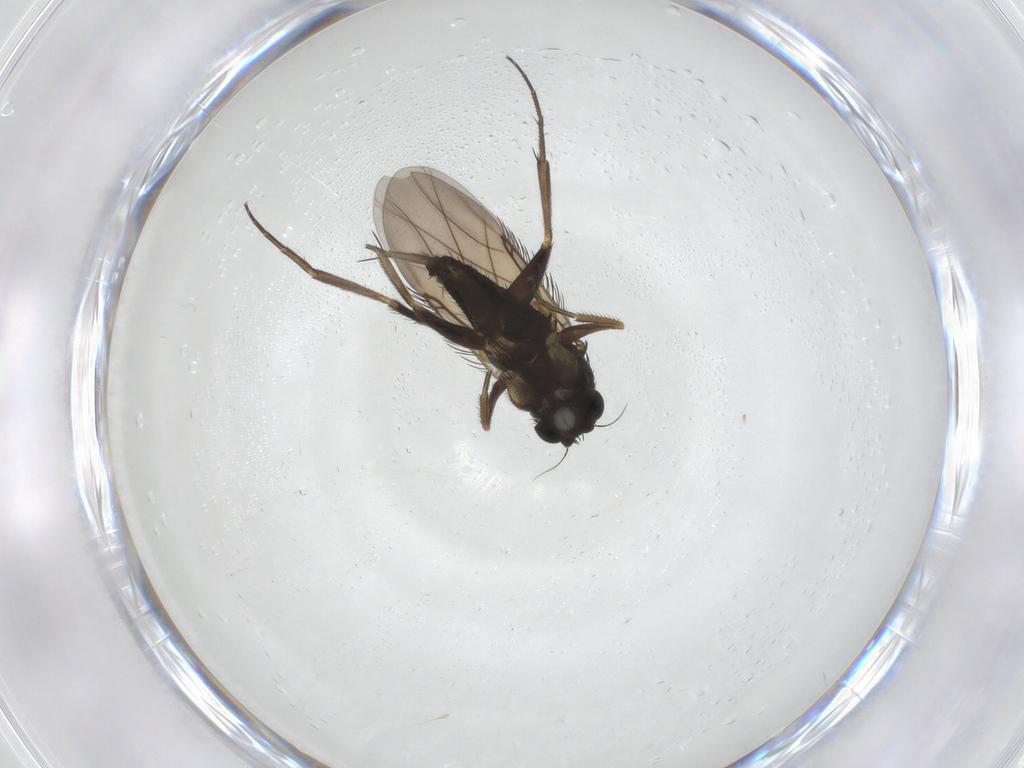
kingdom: Animalia
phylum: Arthropoda
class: Insecta
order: Diptera
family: Phoridae
